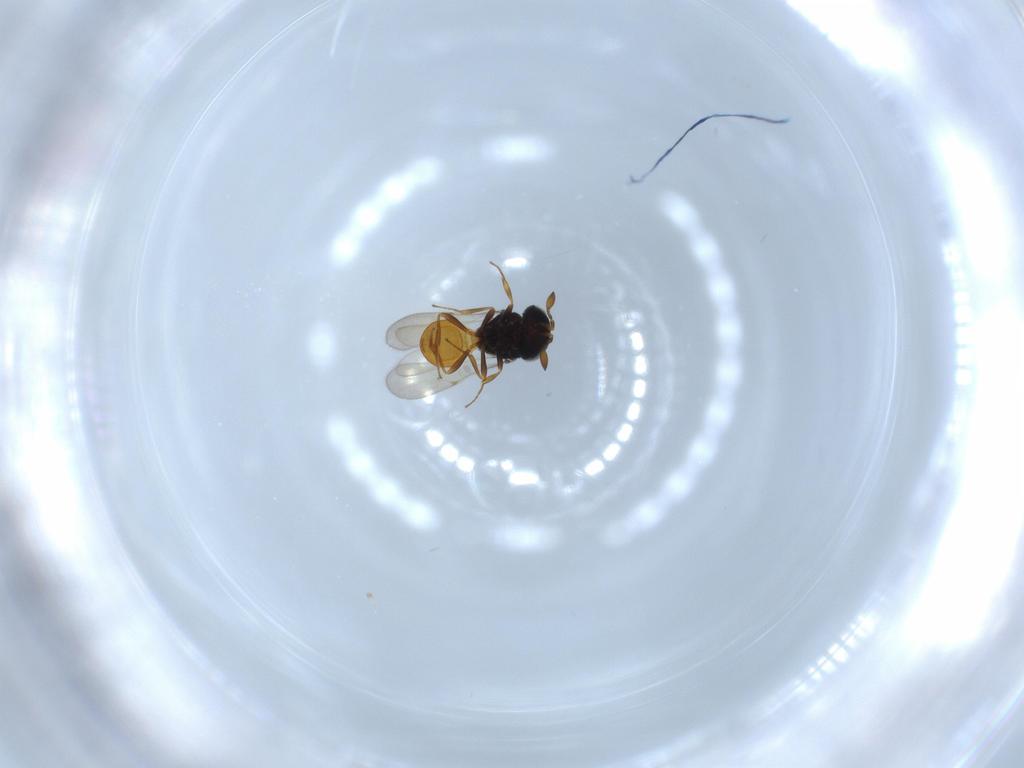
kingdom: Animalia
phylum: Arthropoda
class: Insecta
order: Hymenoptera
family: Scelionidae
